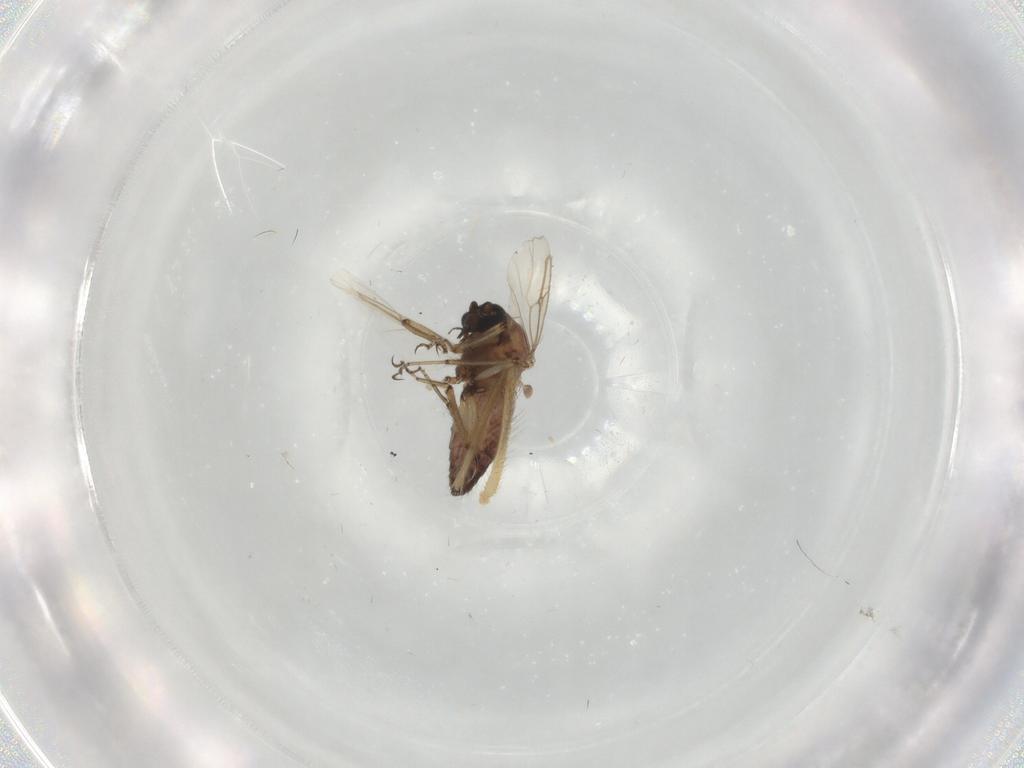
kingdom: Animalia
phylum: Arthropoda
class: Insecta
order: Diptera
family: Ceratopogonidae
